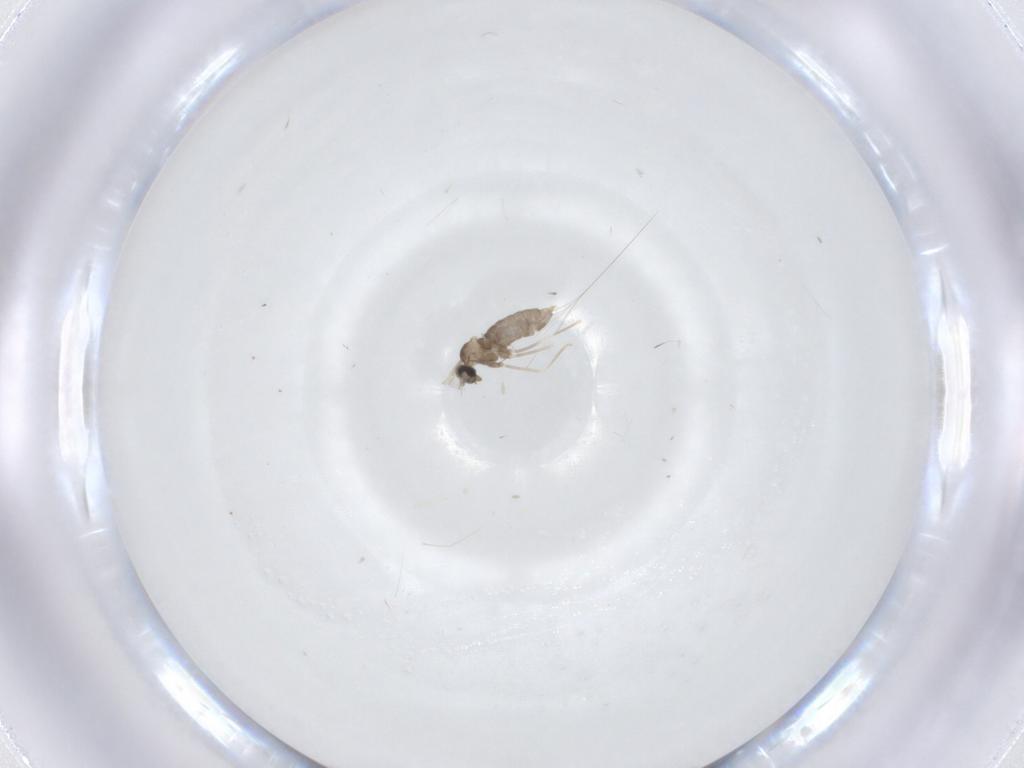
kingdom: Animalia
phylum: Arthropoda
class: Insecta
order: Diptera
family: Cecidomyiidae
